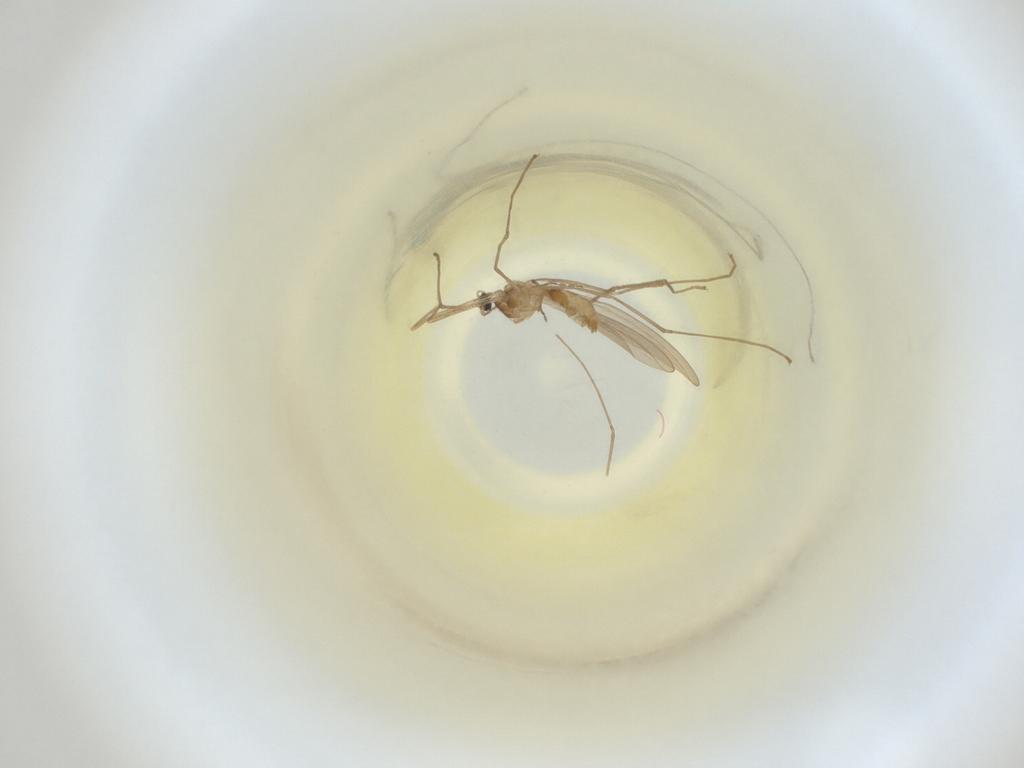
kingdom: Animalia
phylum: Arthropoda
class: Insecta
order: Diptera
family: Cecidomyiidae
